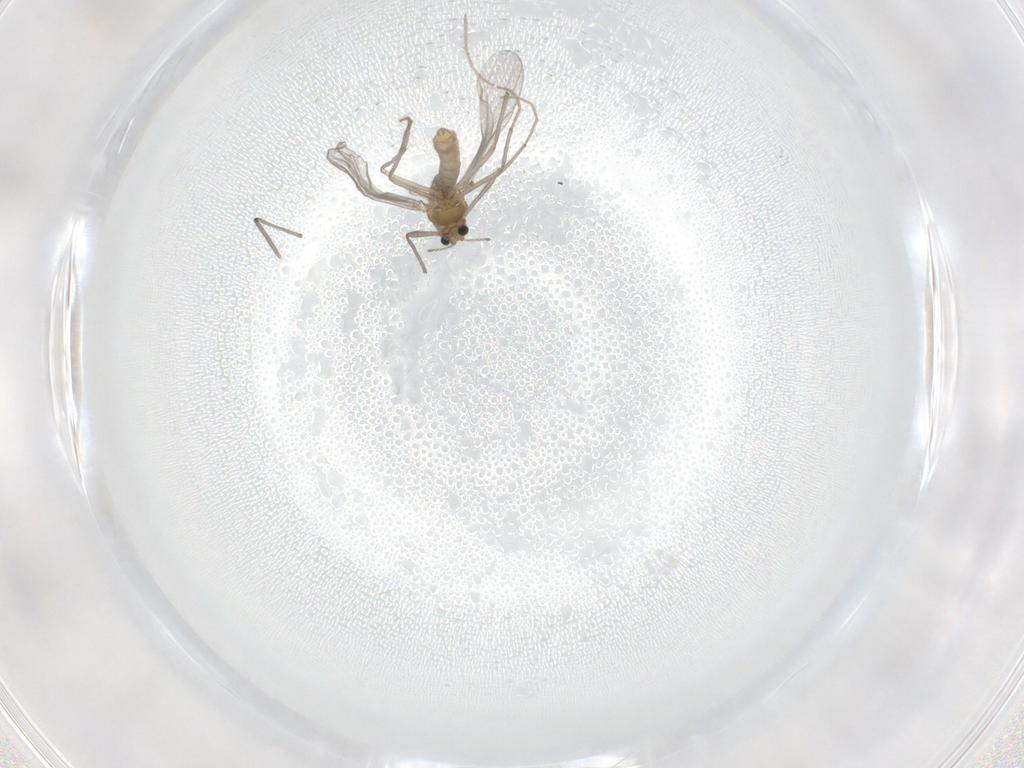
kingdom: Animalia
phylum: Arthropoda
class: Insecta
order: Diptera
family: Chironomidae
